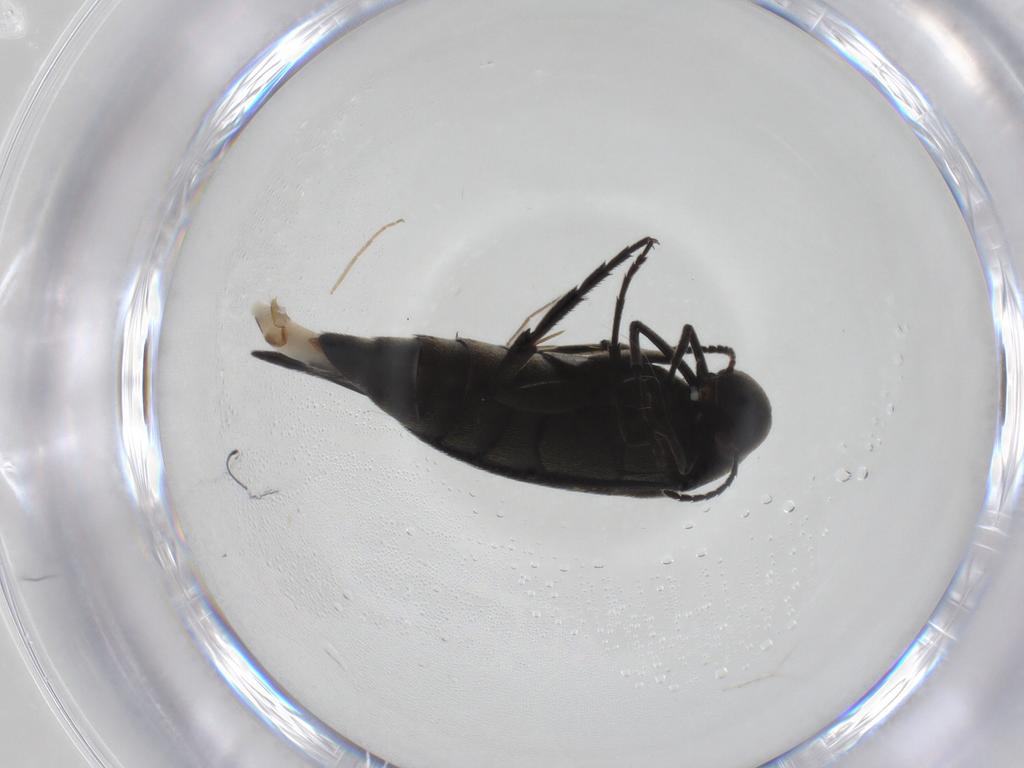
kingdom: Animalia
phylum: Arthropoda
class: Insecta
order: Coleoptera
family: Mordellidae
